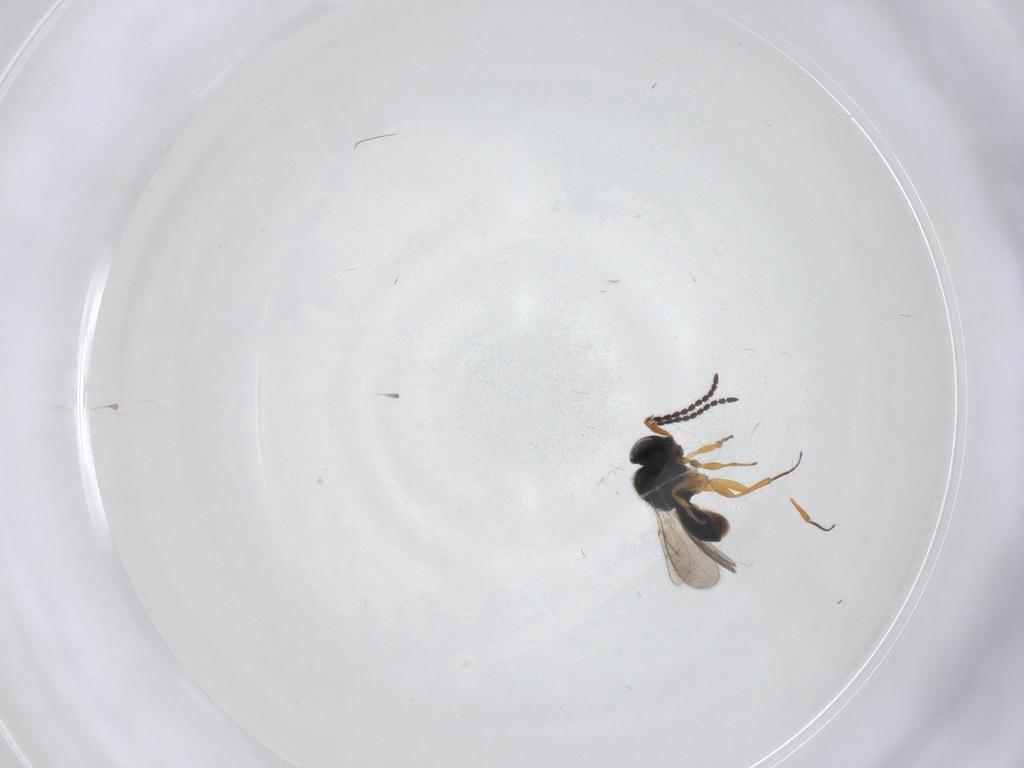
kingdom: Animalia
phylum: Arthropoda
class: Insecta
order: Hymenoptera
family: Scelionidae
